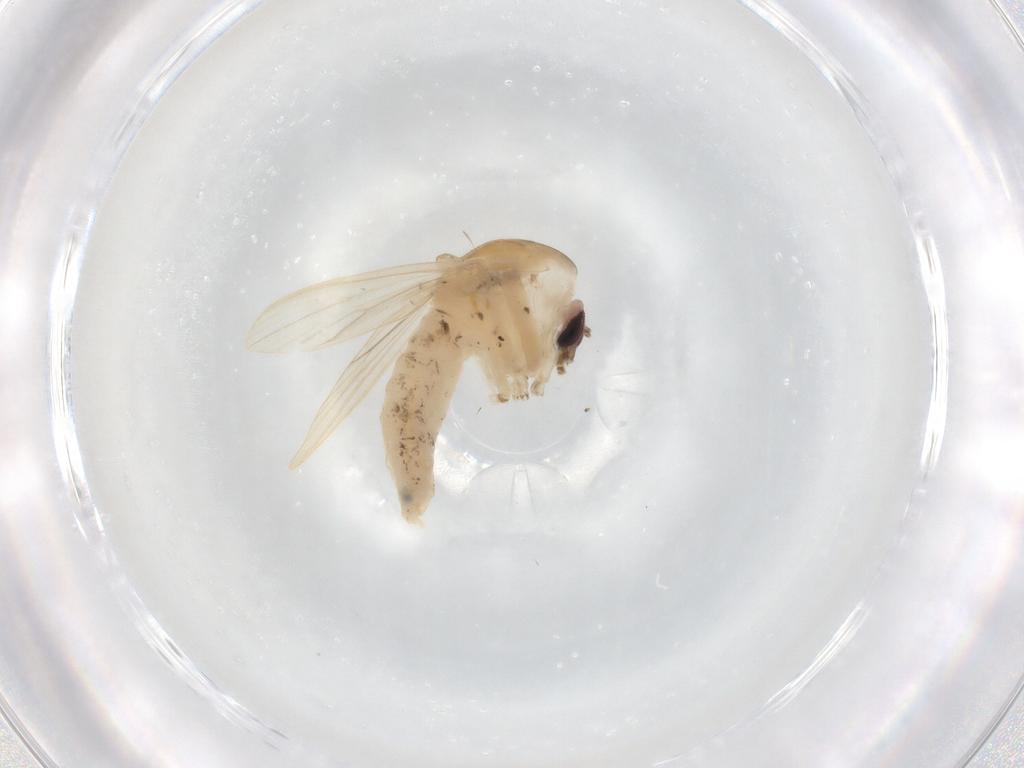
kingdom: Animalia
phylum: Arthropoda
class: Insecta
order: Diptera
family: Chaoboridae
